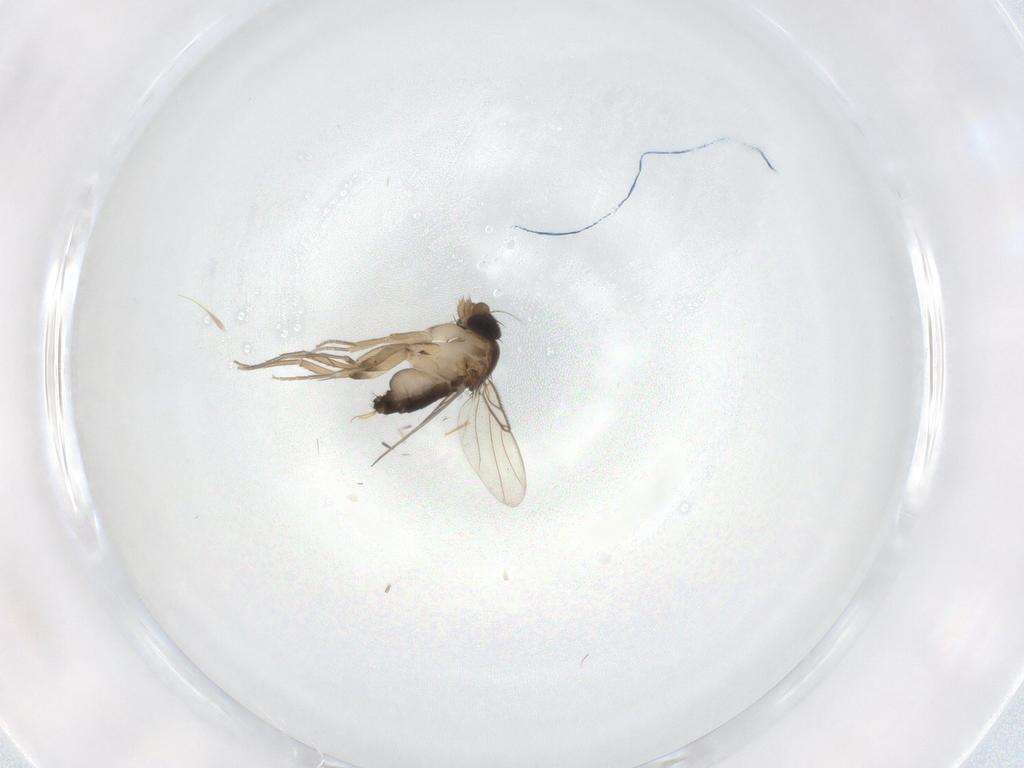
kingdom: Animalia
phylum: Arthropoda
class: Insecta
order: Diptera
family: Phoridae
